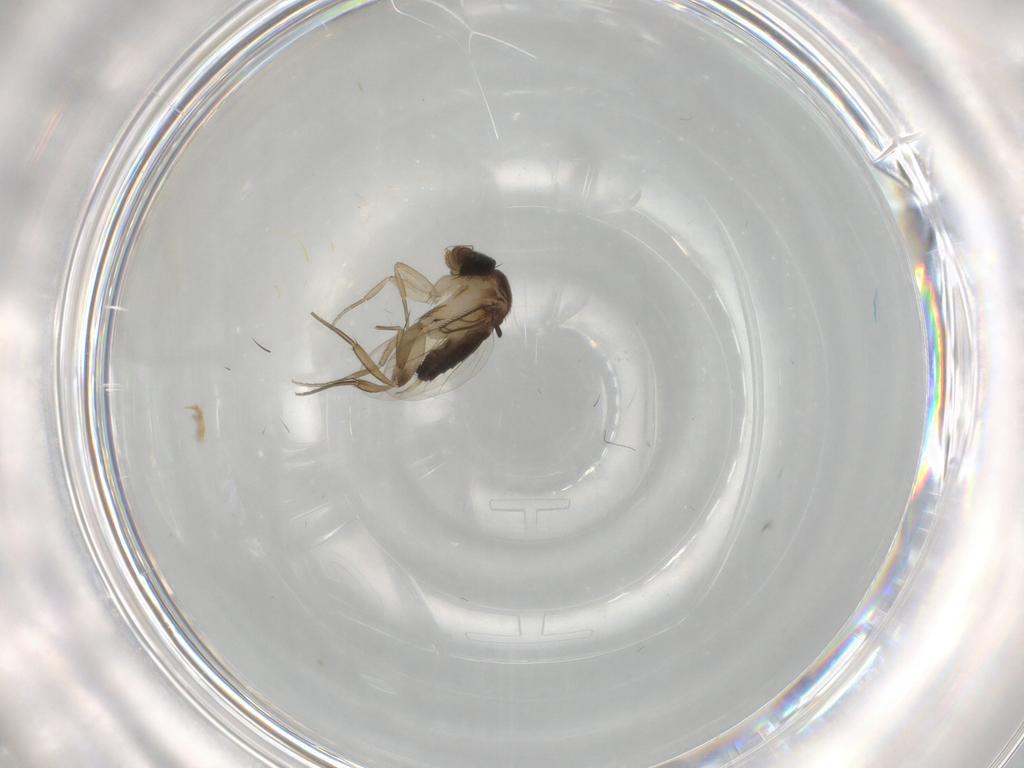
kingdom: Animalia
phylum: Arthropoda
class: Insecta
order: Diptera
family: Phoridae
